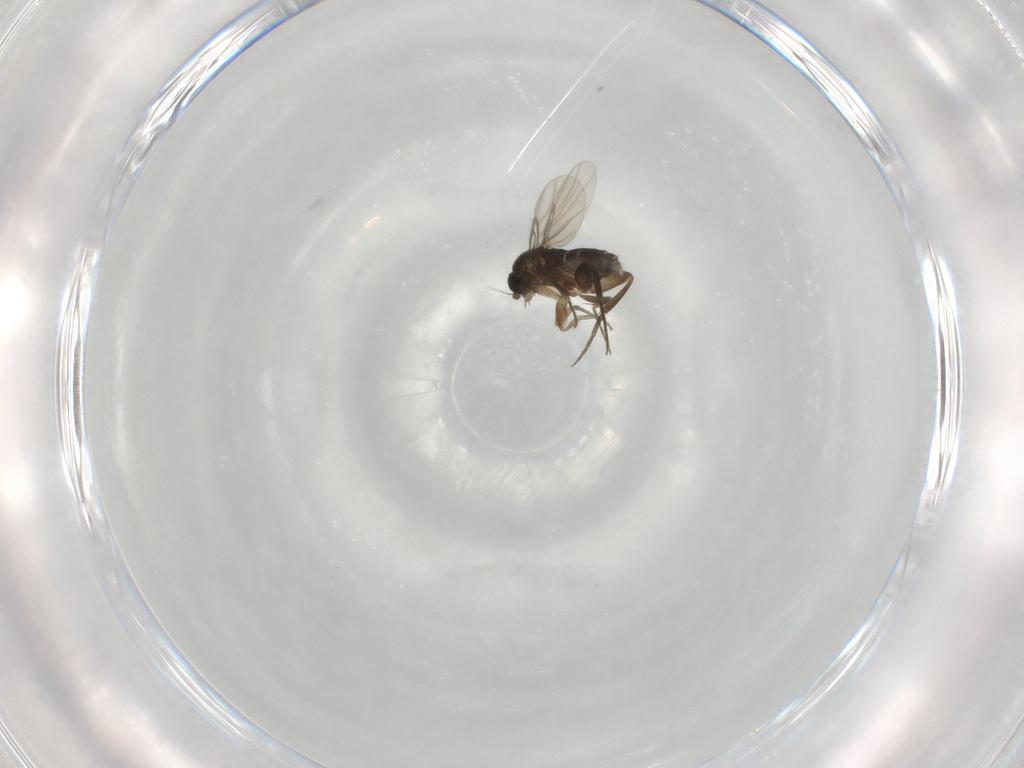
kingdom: Animalia
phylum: Arthropoda
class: Insecta
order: Diptera
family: Phoridae
